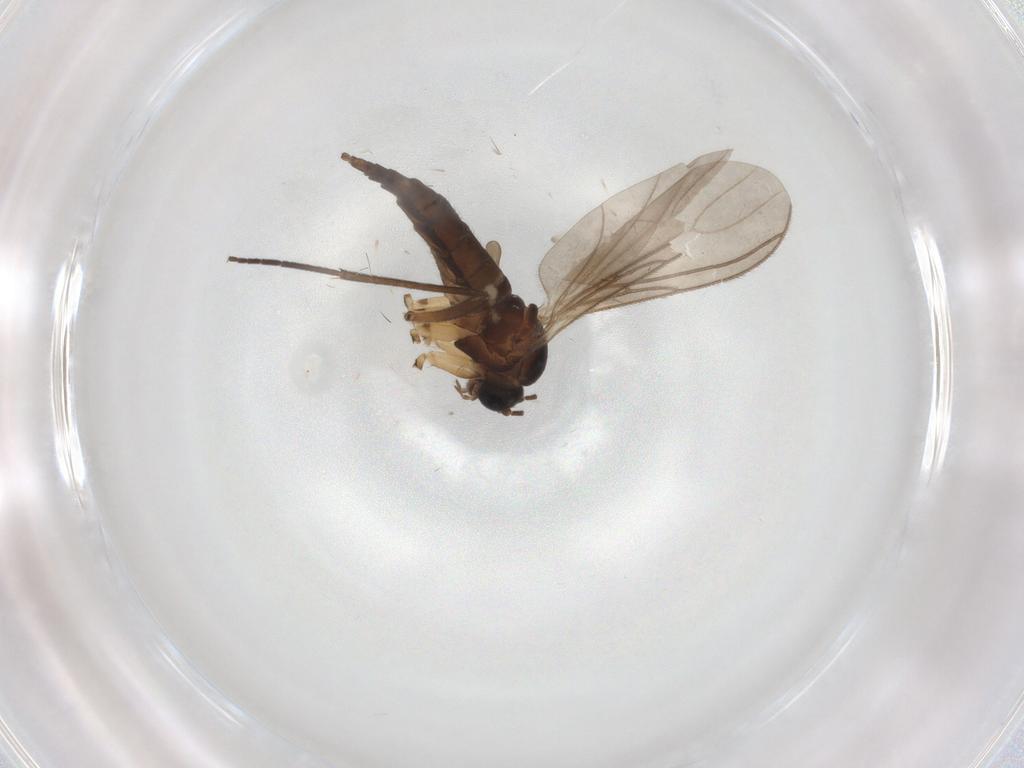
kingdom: Animalia
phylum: Arthropoda
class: Insecta
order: Diptera
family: Sciaridae
